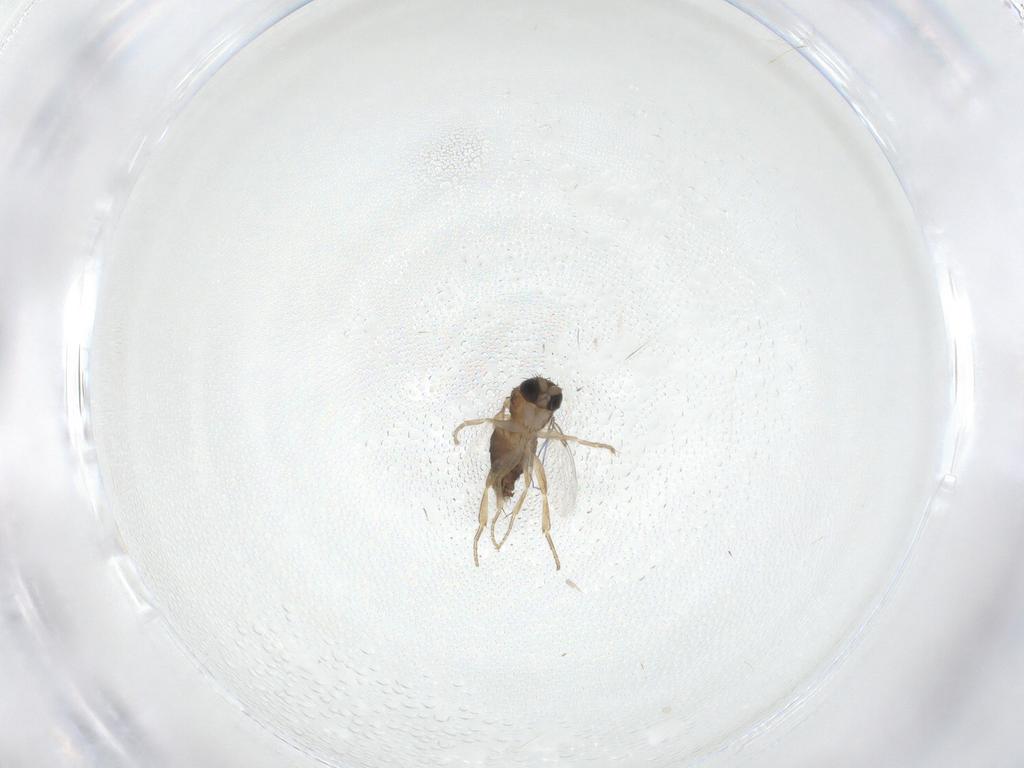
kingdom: Animalia
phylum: Arthropoda
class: Insecta
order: Diptera
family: Sarcophagidae
